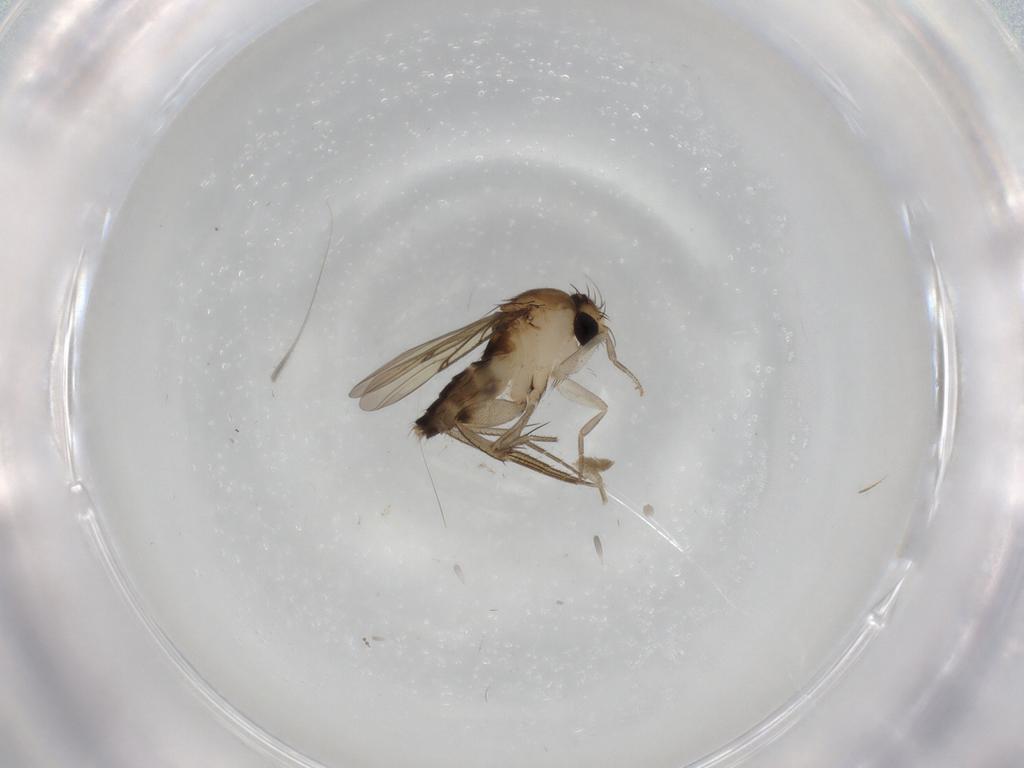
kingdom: Animalia
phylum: Arthropoda
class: Insecta
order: Diptera
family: Phoridae
